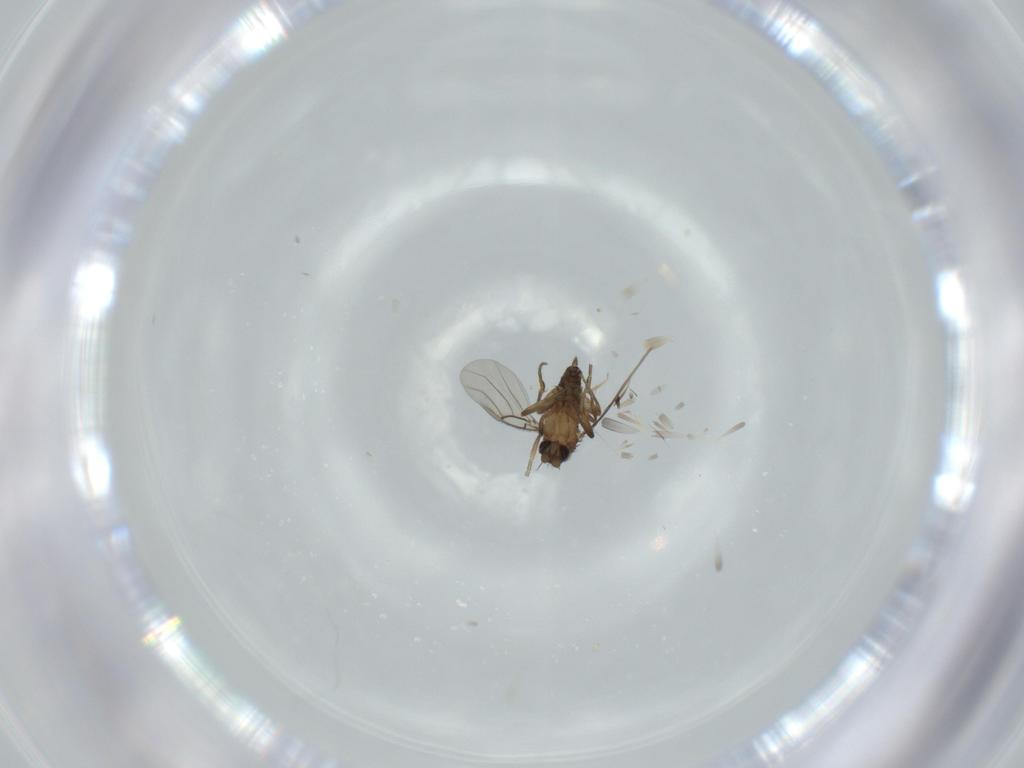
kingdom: Animalia
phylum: Arthropoda
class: Insecta
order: Diptera
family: Phoridae
